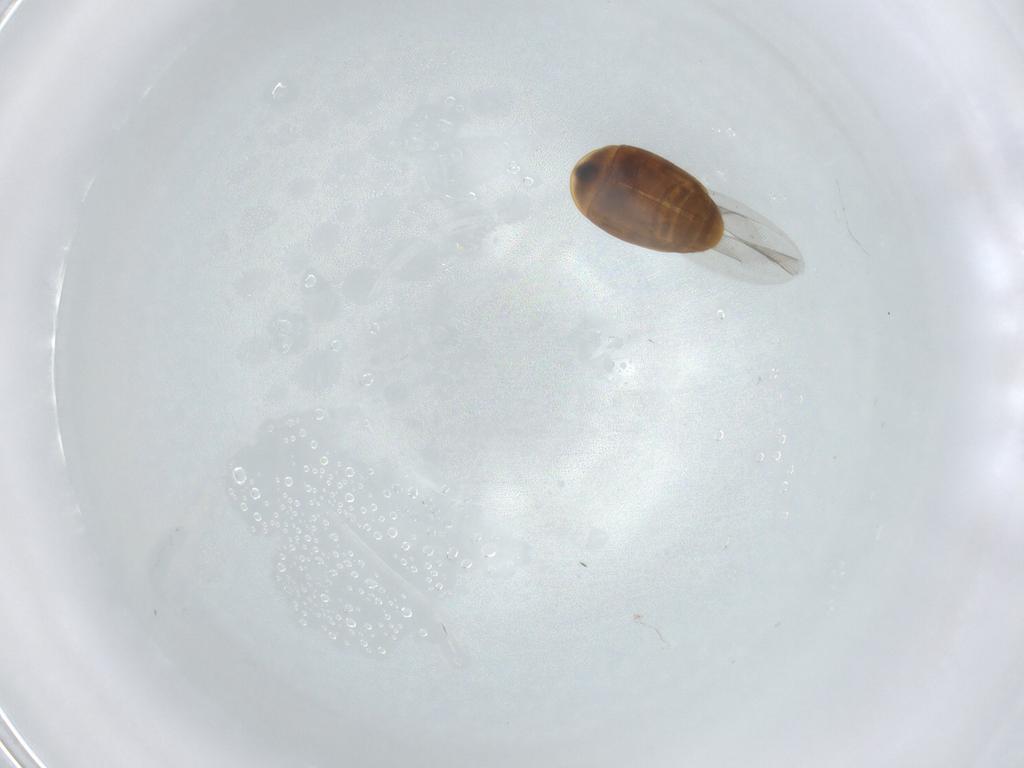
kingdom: Animalia
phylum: Arthropoda
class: Insecta
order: Coleoptera
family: Corylophidae
